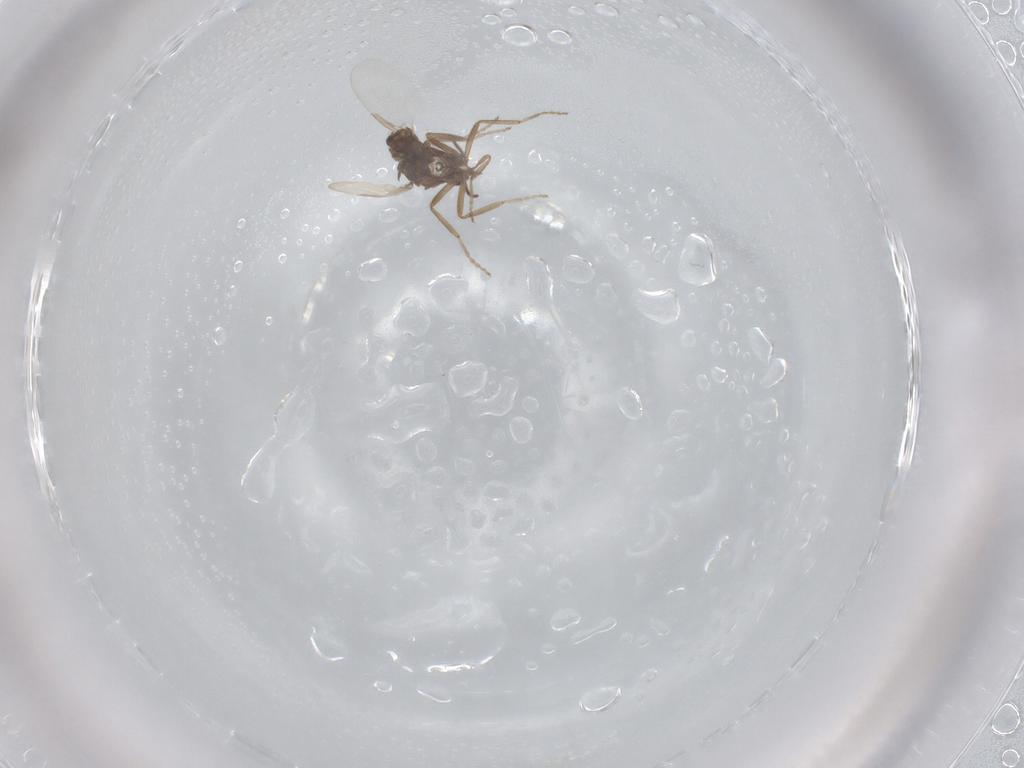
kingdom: Animalia
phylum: Arthropoda
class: Insecta
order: Diptera
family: Ceratopogonidae
